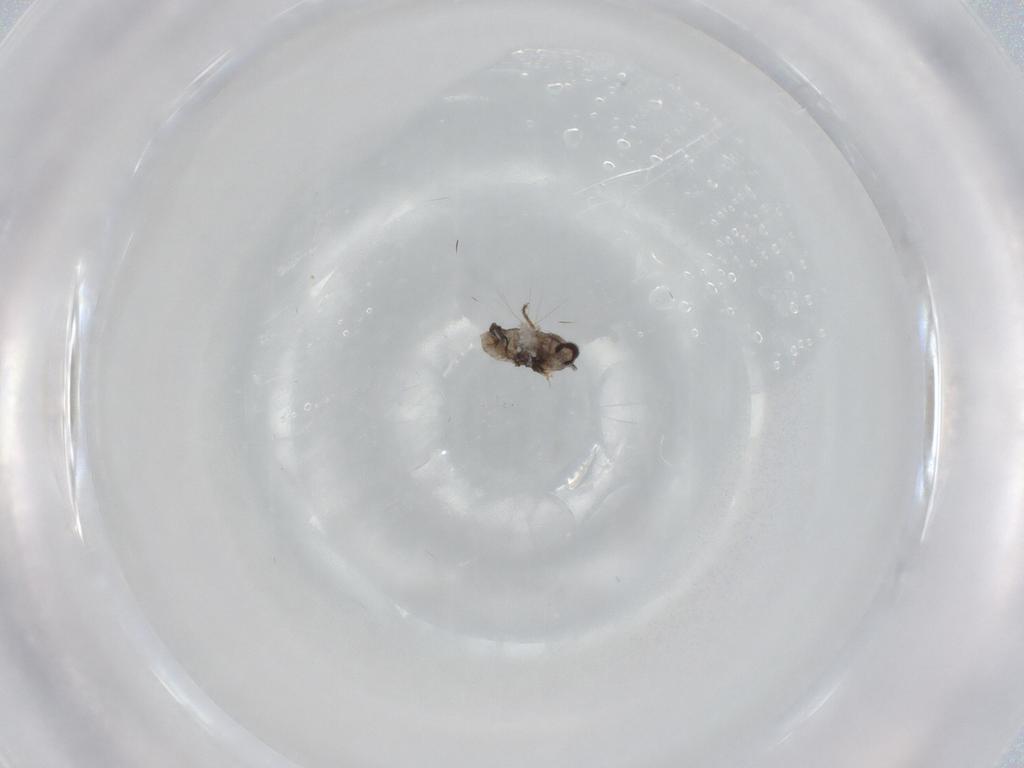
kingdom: Animalia
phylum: Arthropoda
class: Insecta
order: Diptera
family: Sphaeroceridae
